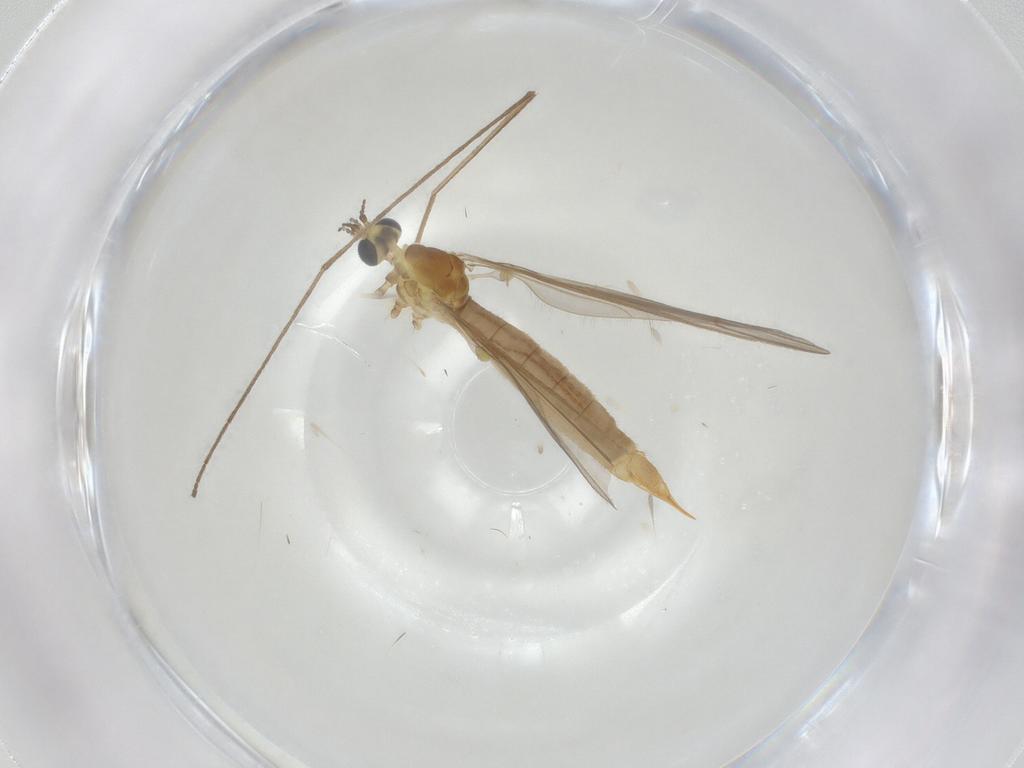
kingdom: Animalia
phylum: Arthropoda
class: Insecta
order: Diptera
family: Limoniidae
